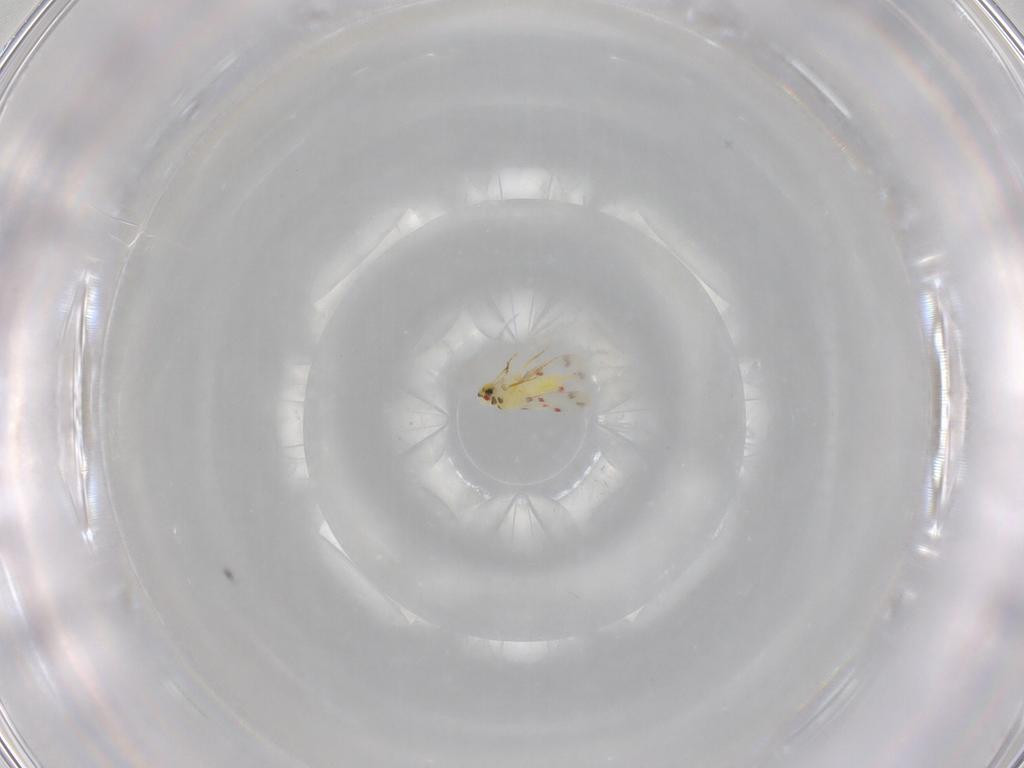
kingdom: Animalia
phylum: Arthropoda
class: Insecta
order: Hemiptera
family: Aleyrodidae
